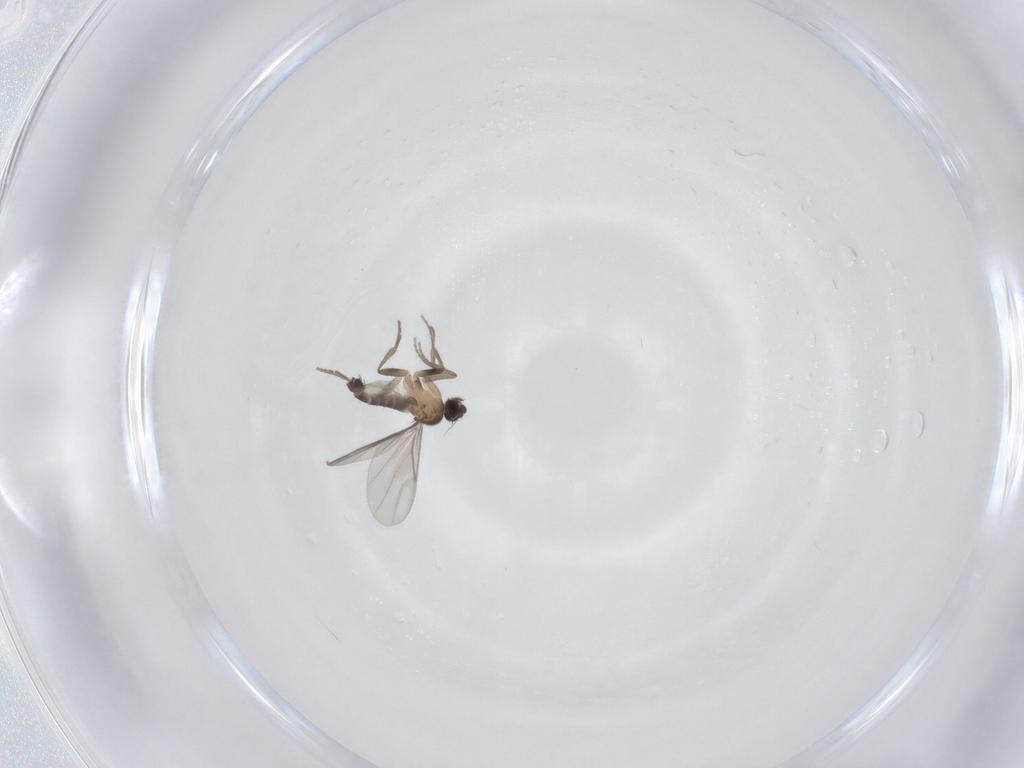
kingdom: Animalia
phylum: Arthropoda
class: Insecta
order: Diptera
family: Phoridae
